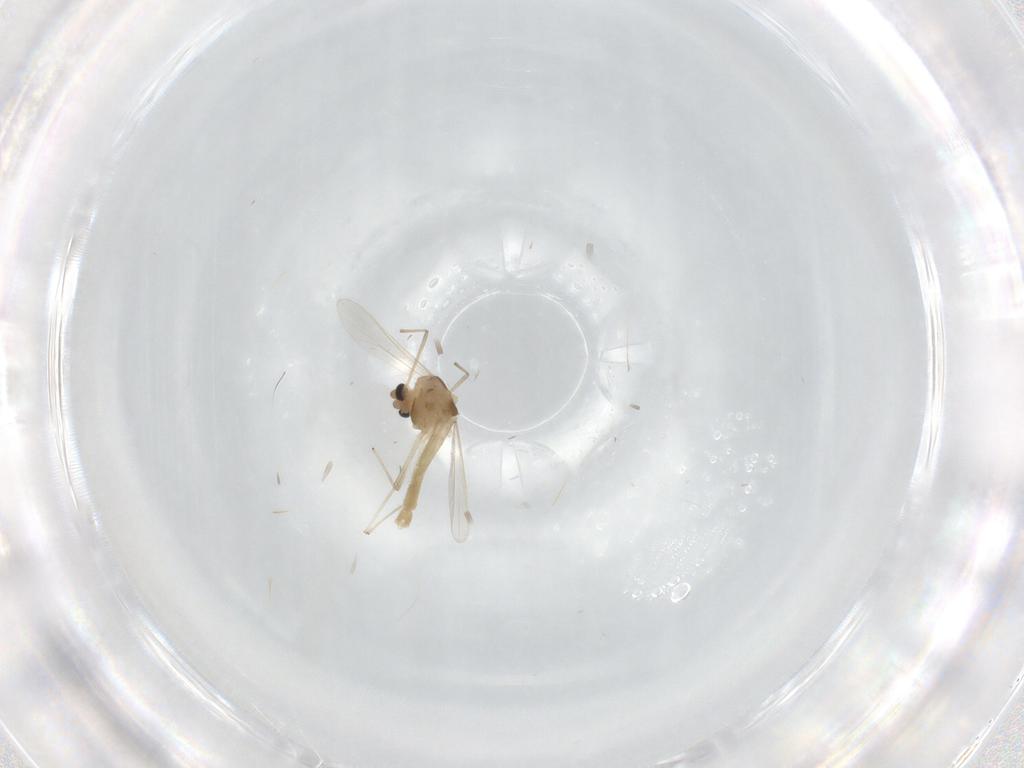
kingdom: Animalia
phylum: Arthropoda
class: Insecta
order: Diptera
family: Chironomidae
